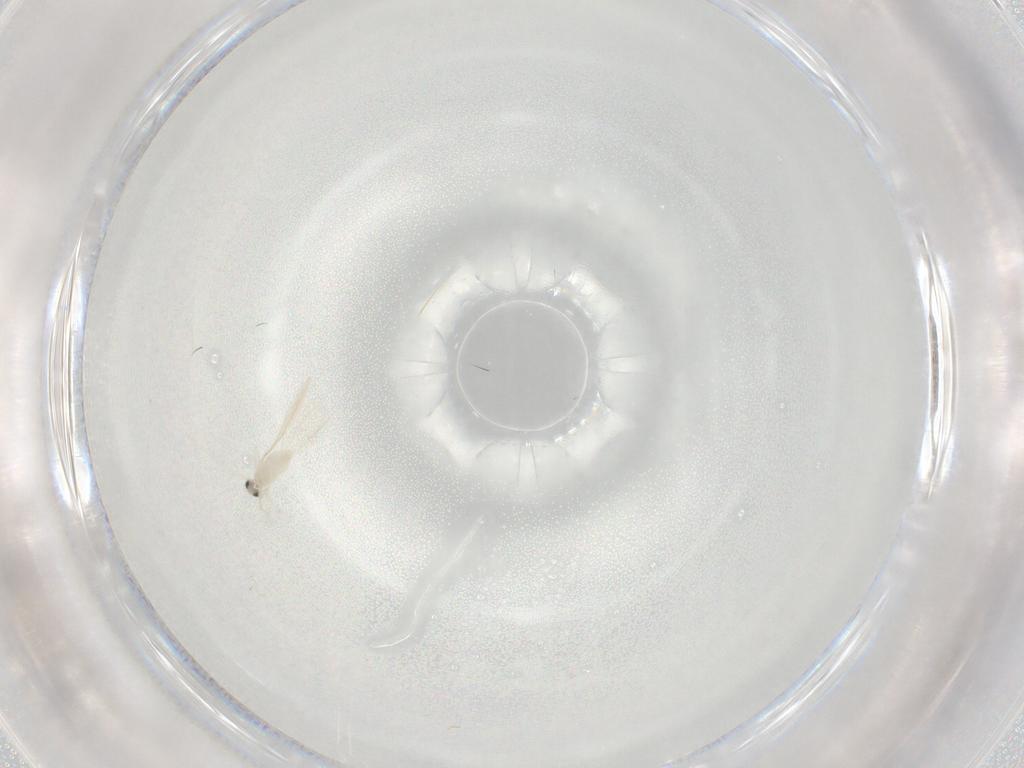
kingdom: Animalia
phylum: Arthropoda
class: Insecta
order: Diptera
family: Cecidomyiidae
